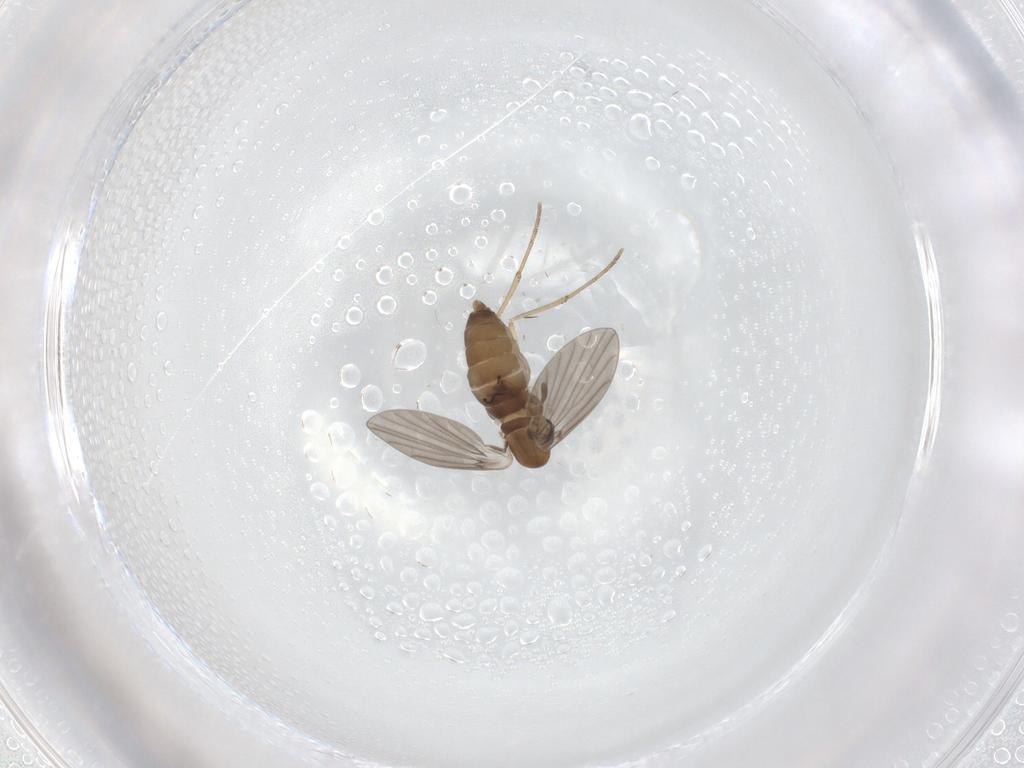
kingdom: Animalia
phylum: Arthropoda
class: Insecta
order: Diptera
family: Cecidomyiidae
